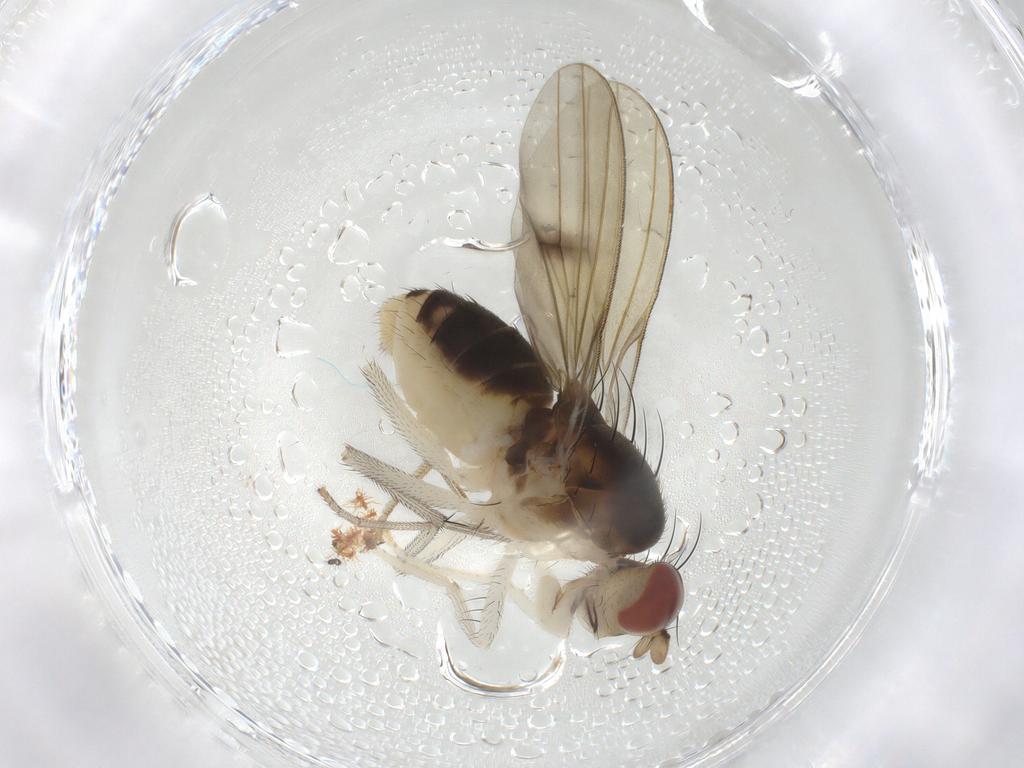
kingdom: Animalia
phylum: Arthropoda
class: Insecta
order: Diptera
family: Limoniidae
